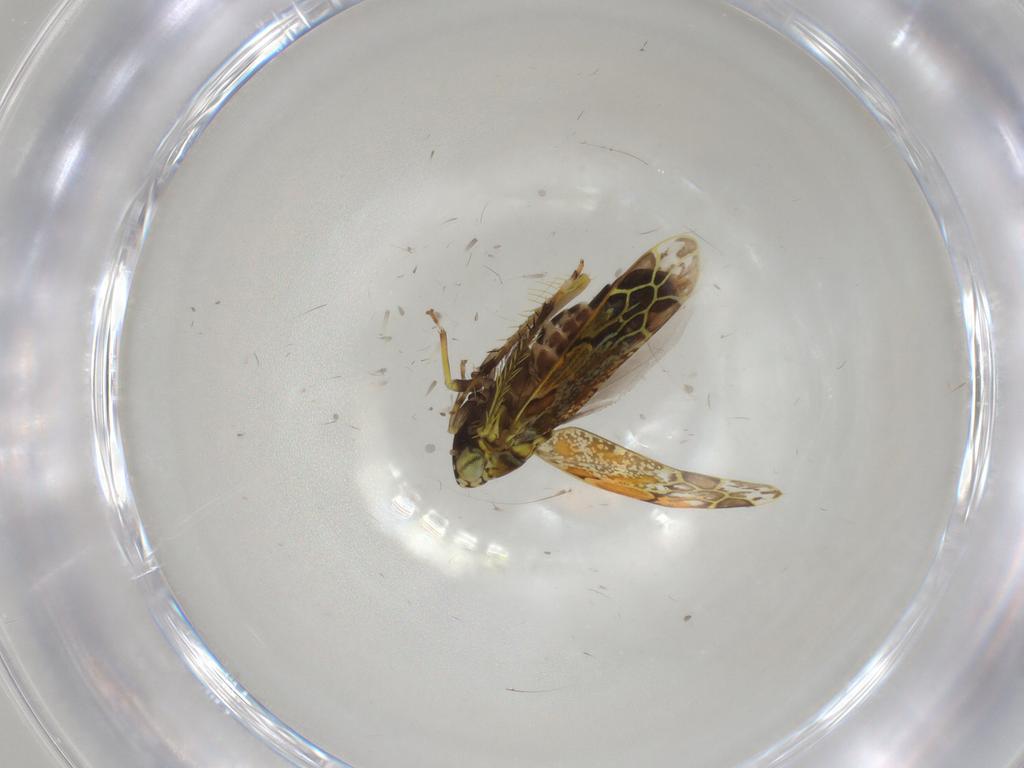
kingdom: Animalia
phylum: Arthropoda
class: Insecta
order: Hemiptera
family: Cicadellidae
